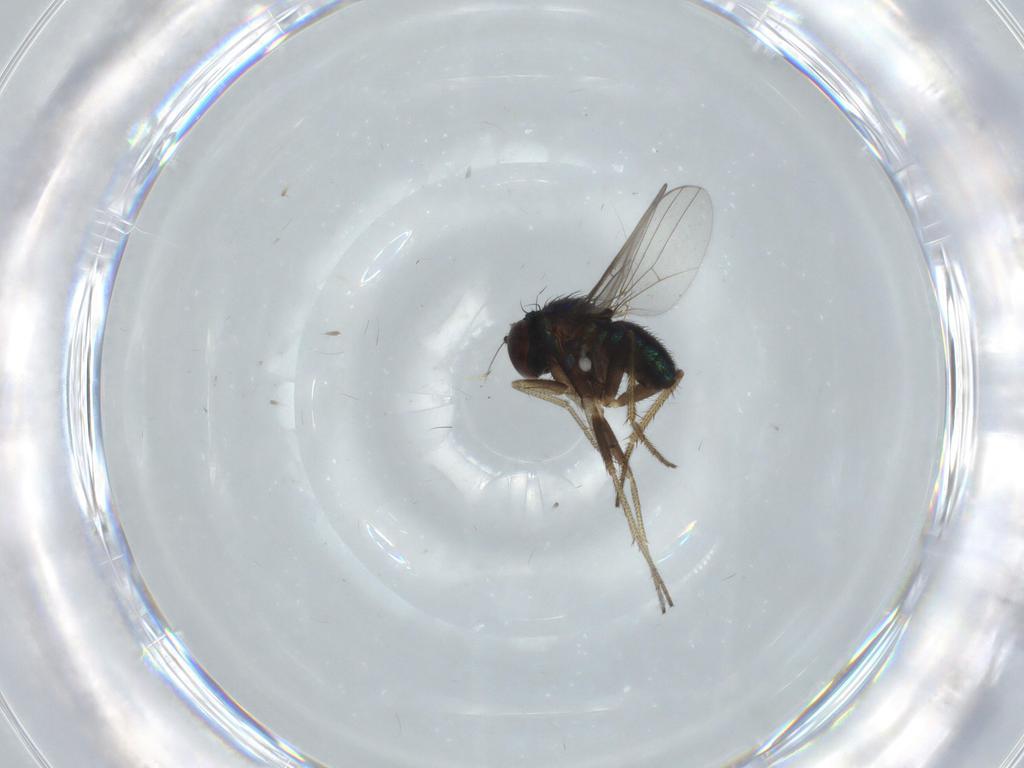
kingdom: Animalia
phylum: Arthropoda
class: Insecta
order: Diptera
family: Dolichopodidae
